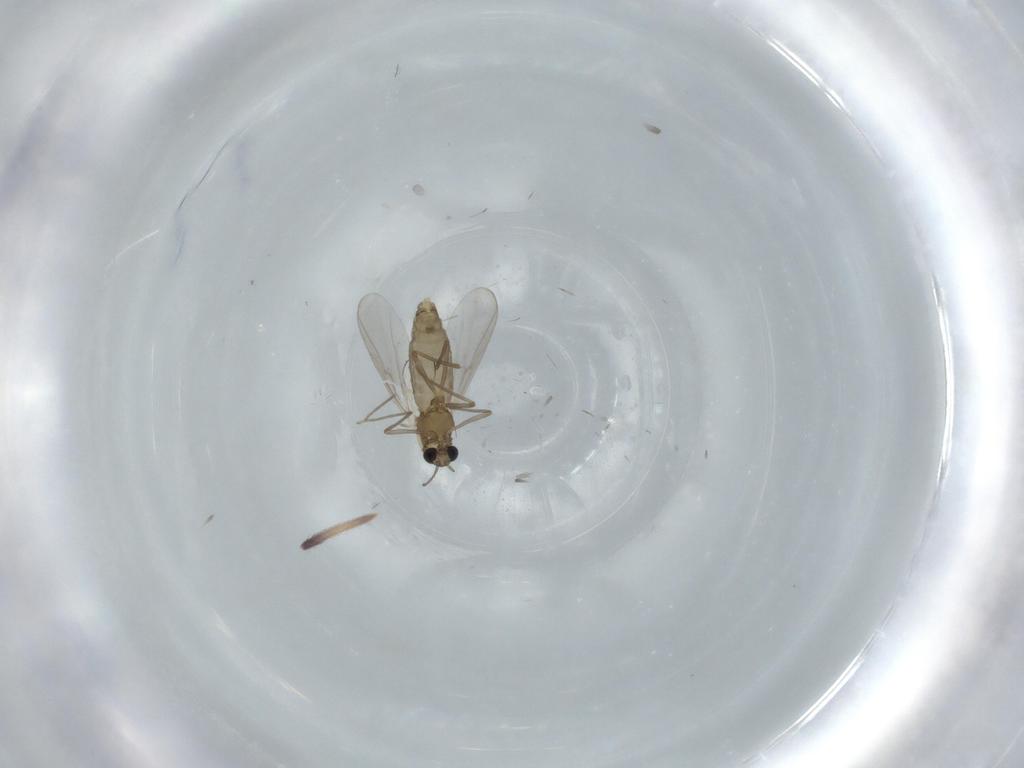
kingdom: Animalia
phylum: Arthropoda
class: Insecta
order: Diptera
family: Chironomidae
